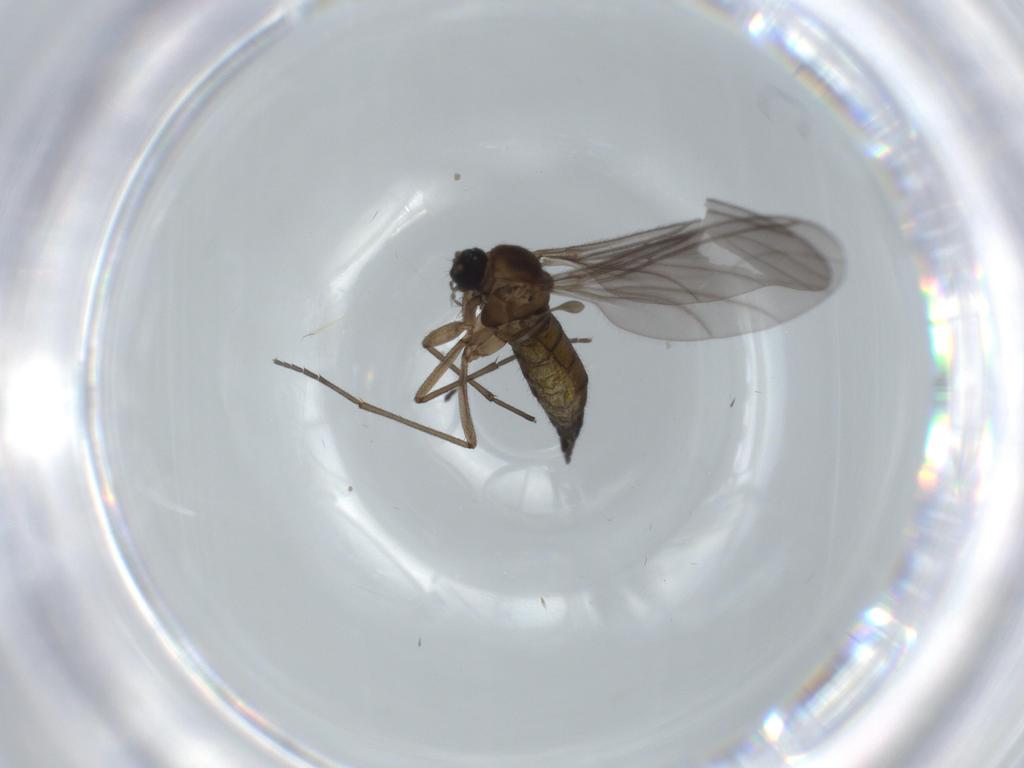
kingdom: Animalia
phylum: Arthropoda
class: Insecta
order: Diptera
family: Sciaridae
